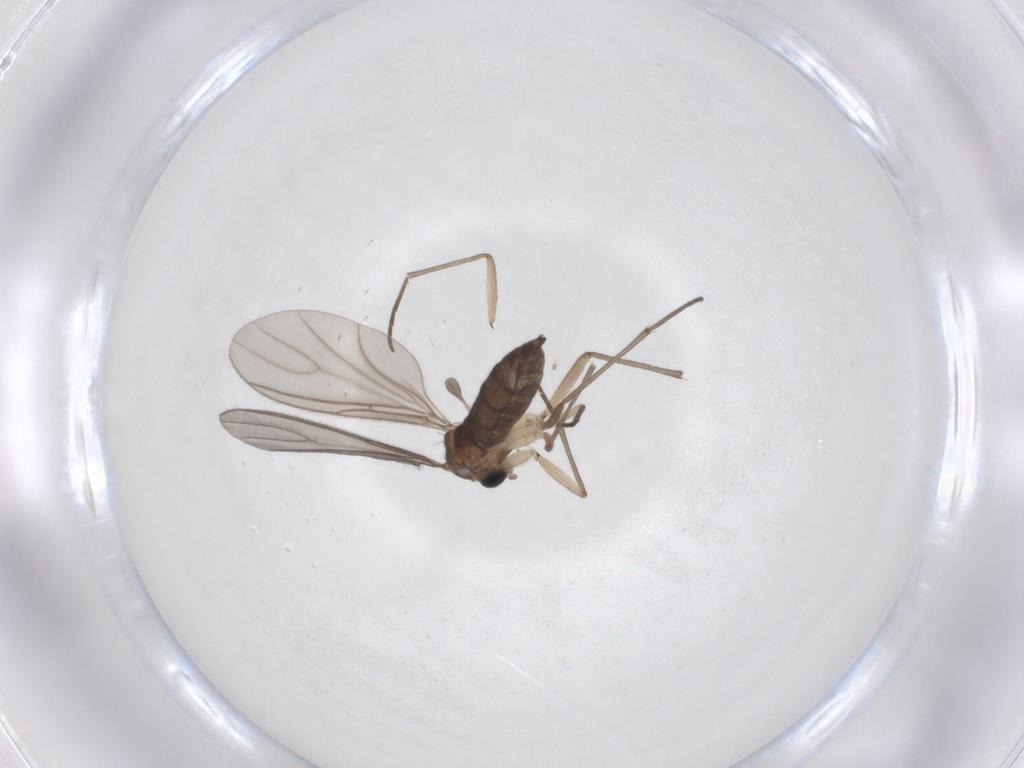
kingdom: Animalia
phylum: Arthropoda
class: Insecta
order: Diptera
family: Sciaridae
